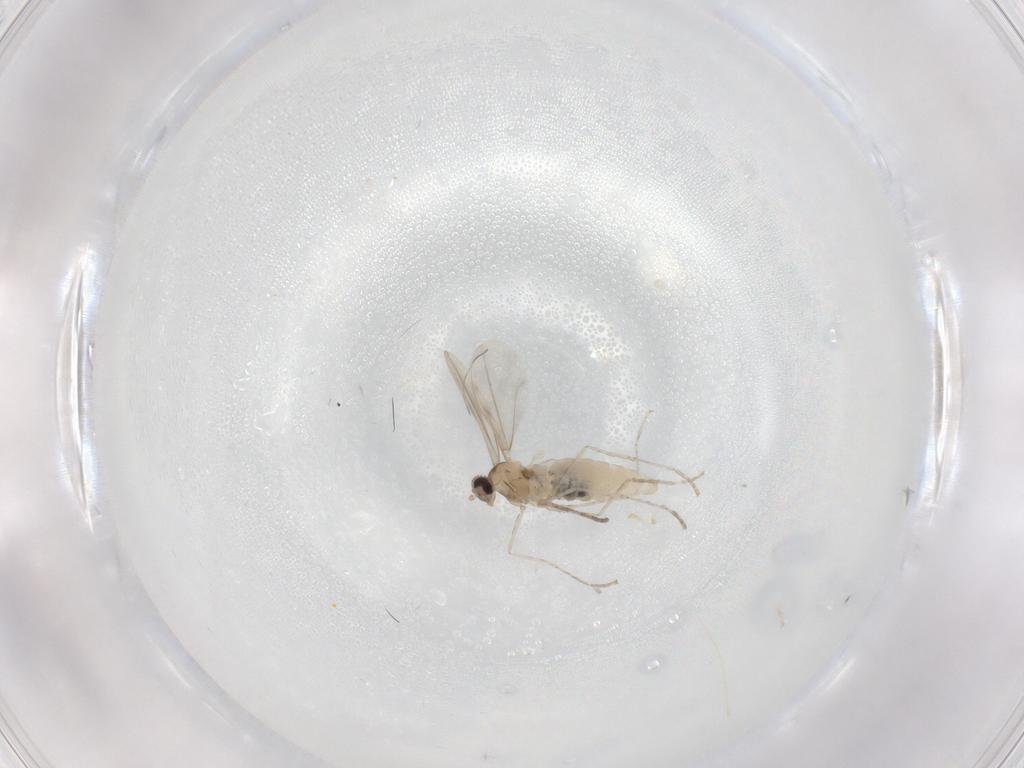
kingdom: Animalia
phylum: Arthropoda
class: Insecta
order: Diptera
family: Cecidomyiidae
